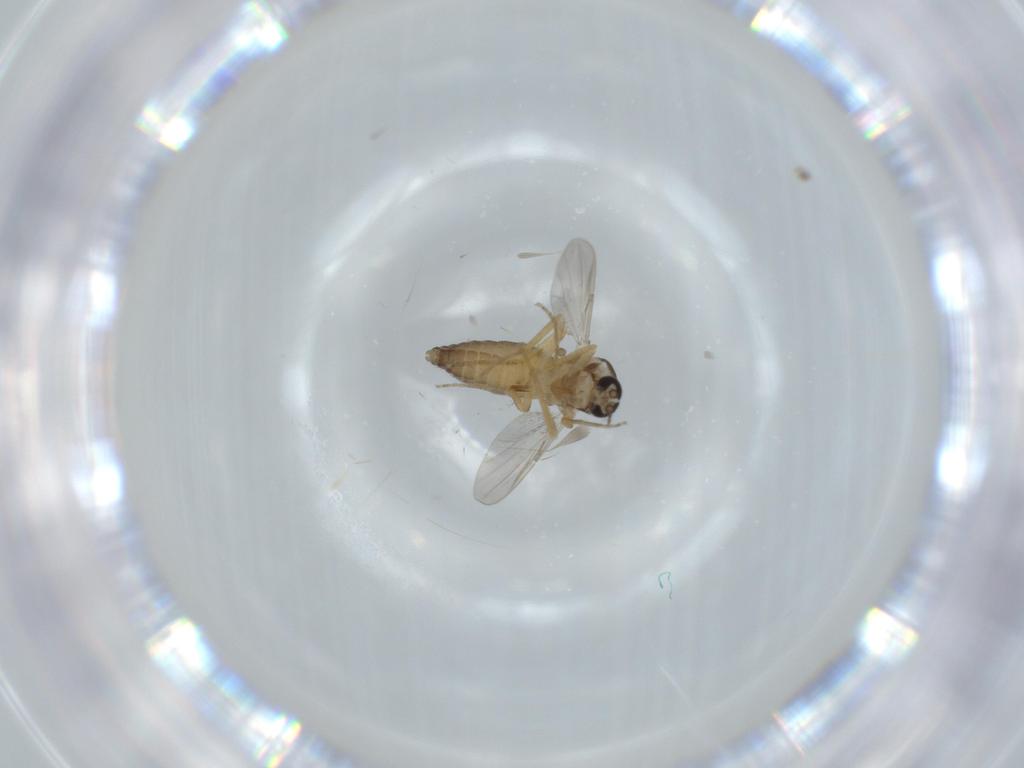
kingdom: Animalia
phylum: Arthropoda
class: Insecta
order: Diptera
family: Ceratopogonidae
